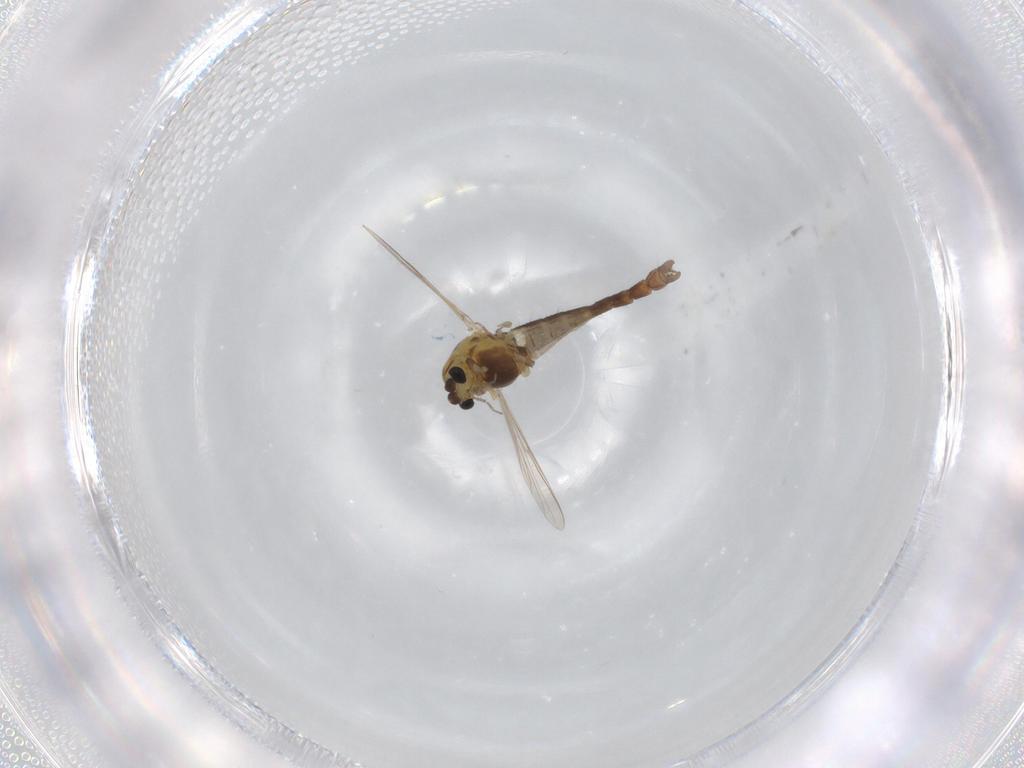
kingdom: Animalia
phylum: Arthropoda
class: Insecta
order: Diptera
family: Chironomidae
